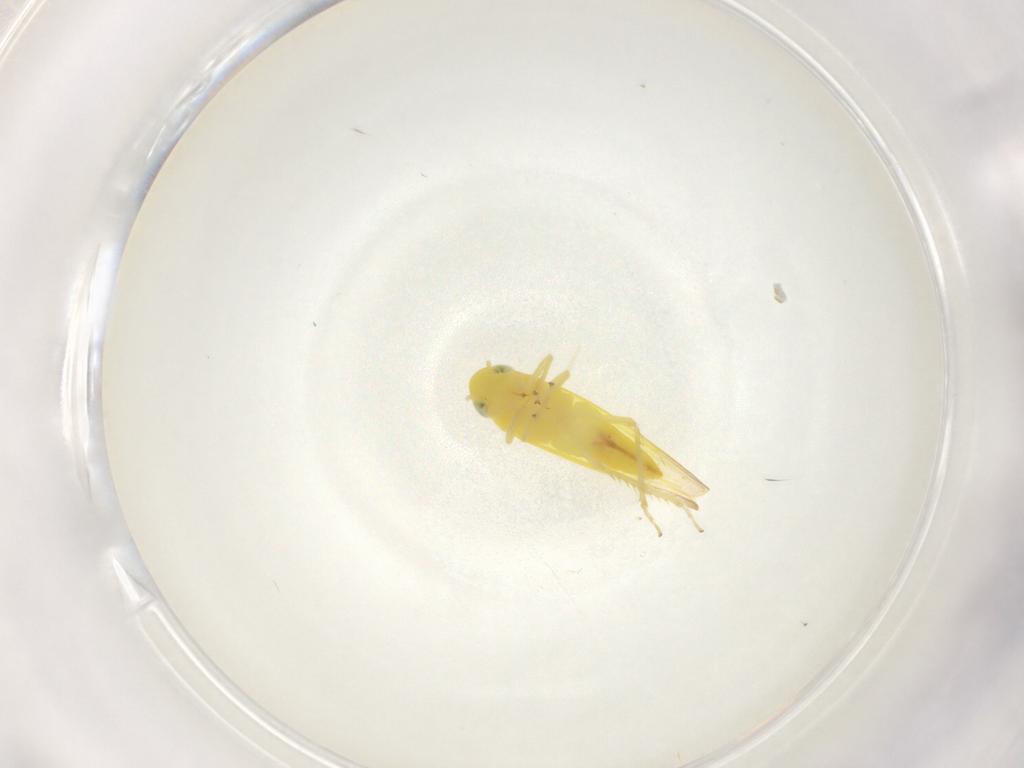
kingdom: Animalia
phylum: Arthropoda
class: Insecta
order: Hemiptera
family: Cicadellidae
